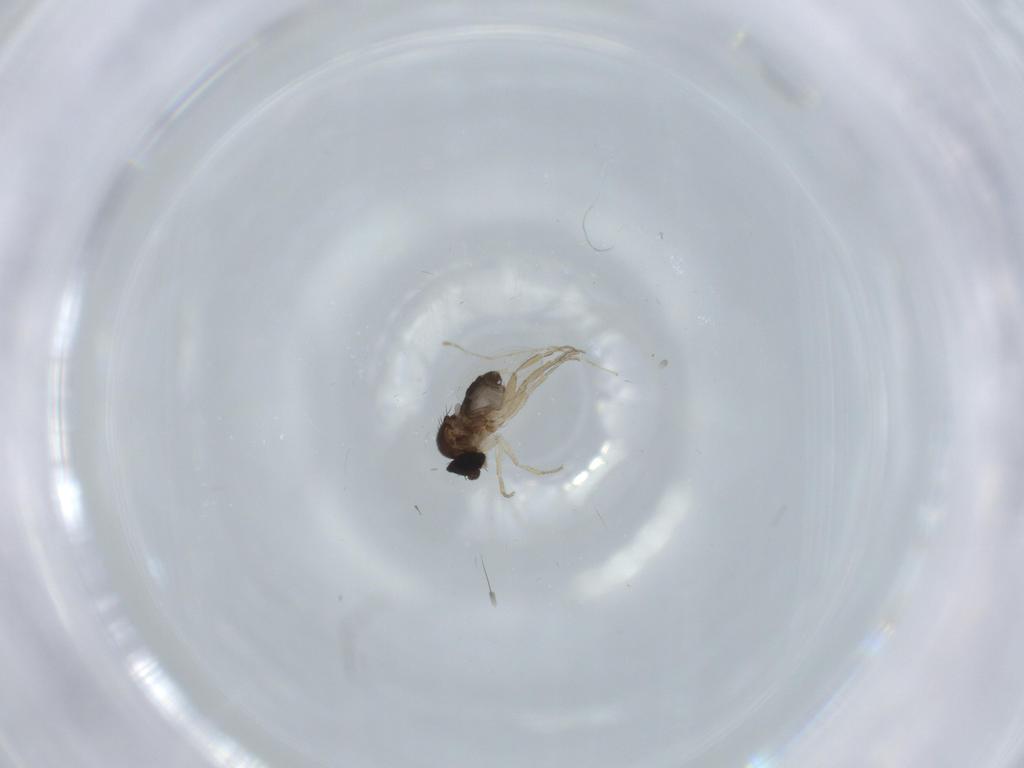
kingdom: Animalia
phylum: Arthropoda
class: Insecta
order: Diptera
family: Phoridae
